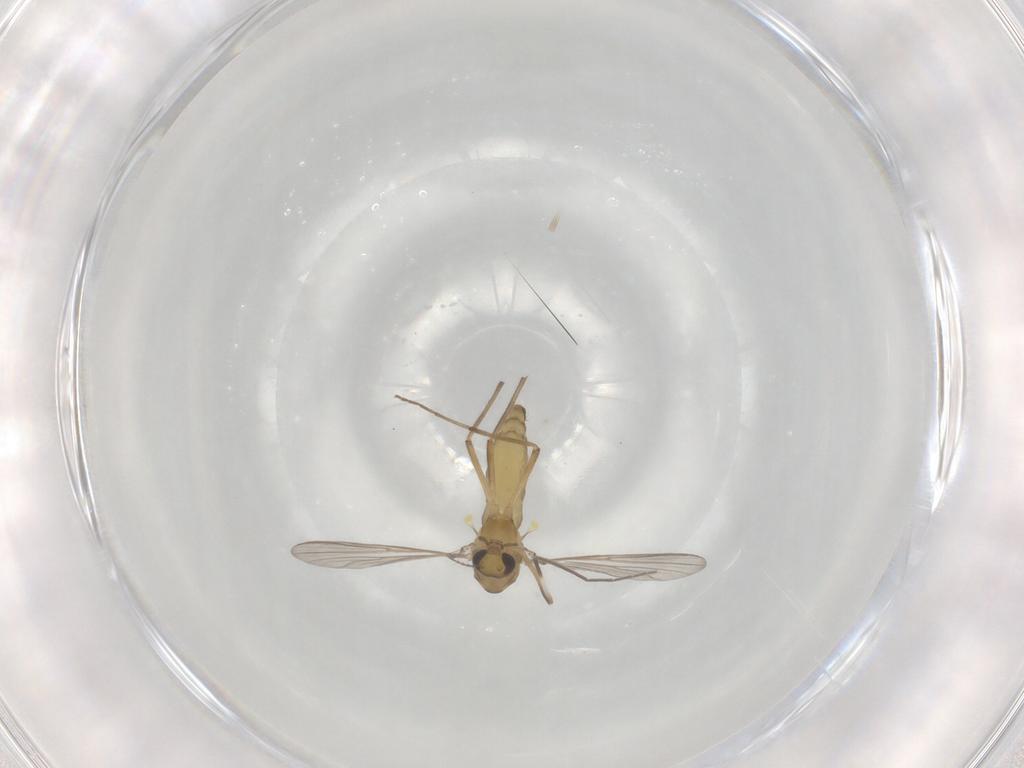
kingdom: Animalia
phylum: Arthropoda
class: Insecta
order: Diptera
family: Chironomidae
